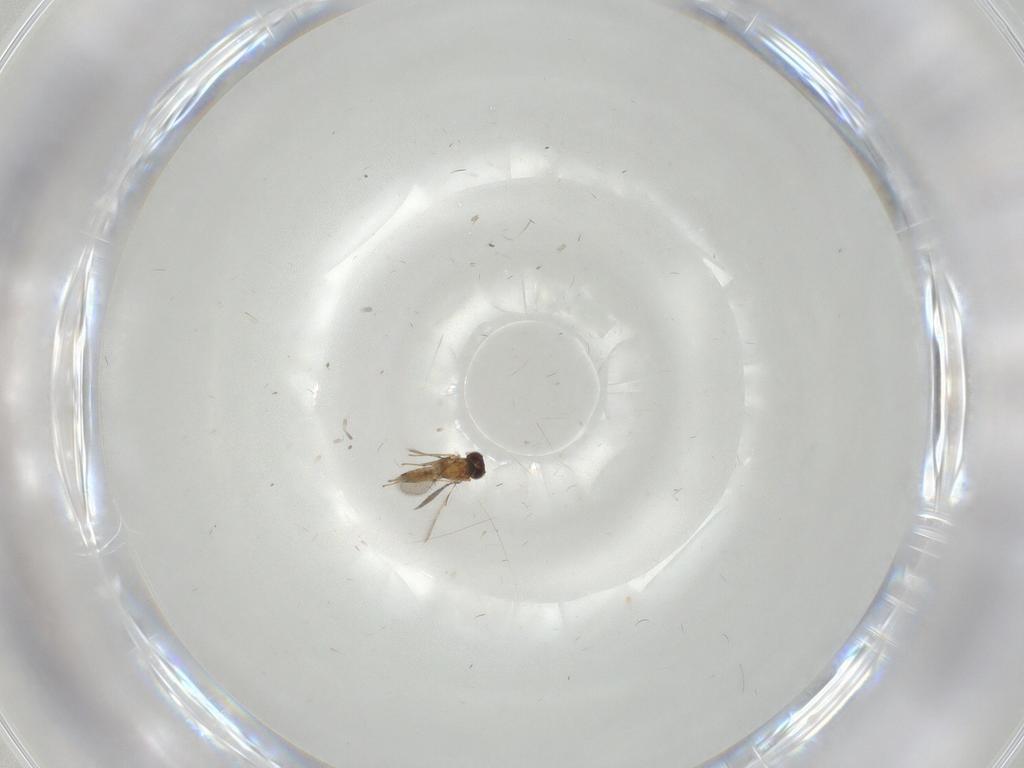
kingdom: Animalia
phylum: Arthropoda
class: Insecta
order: Hymenoptera
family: Mymaridae
